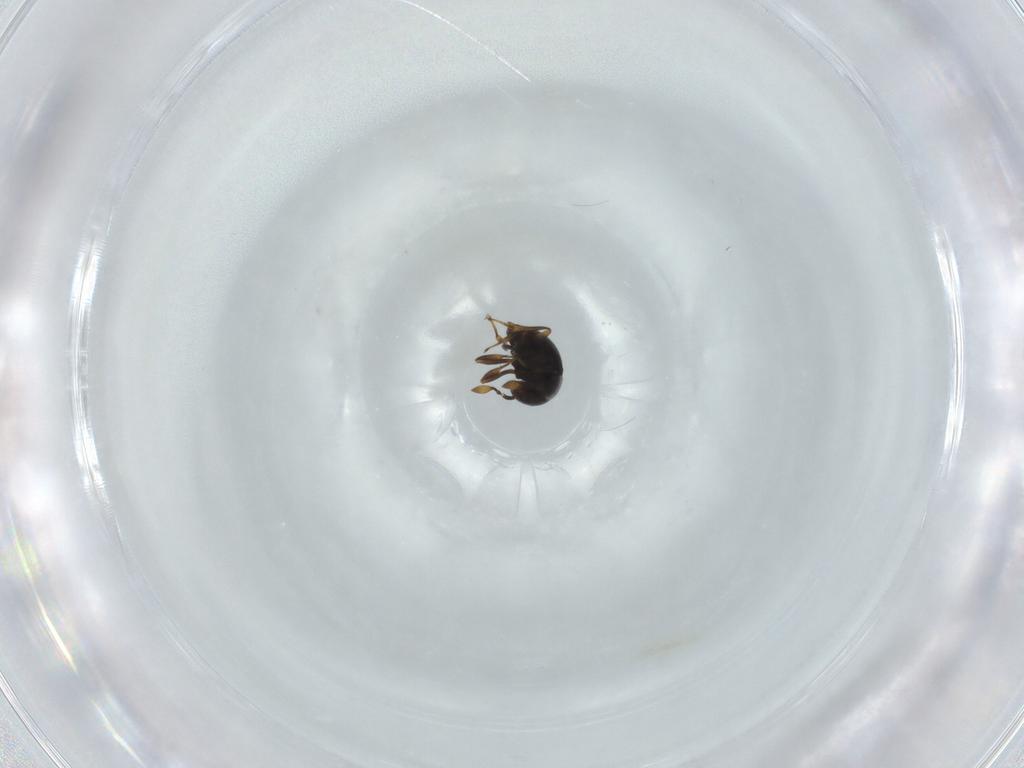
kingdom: Animalia
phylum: Arthropoda
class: Insecta
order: Hymenoptera
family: Scelionidae
